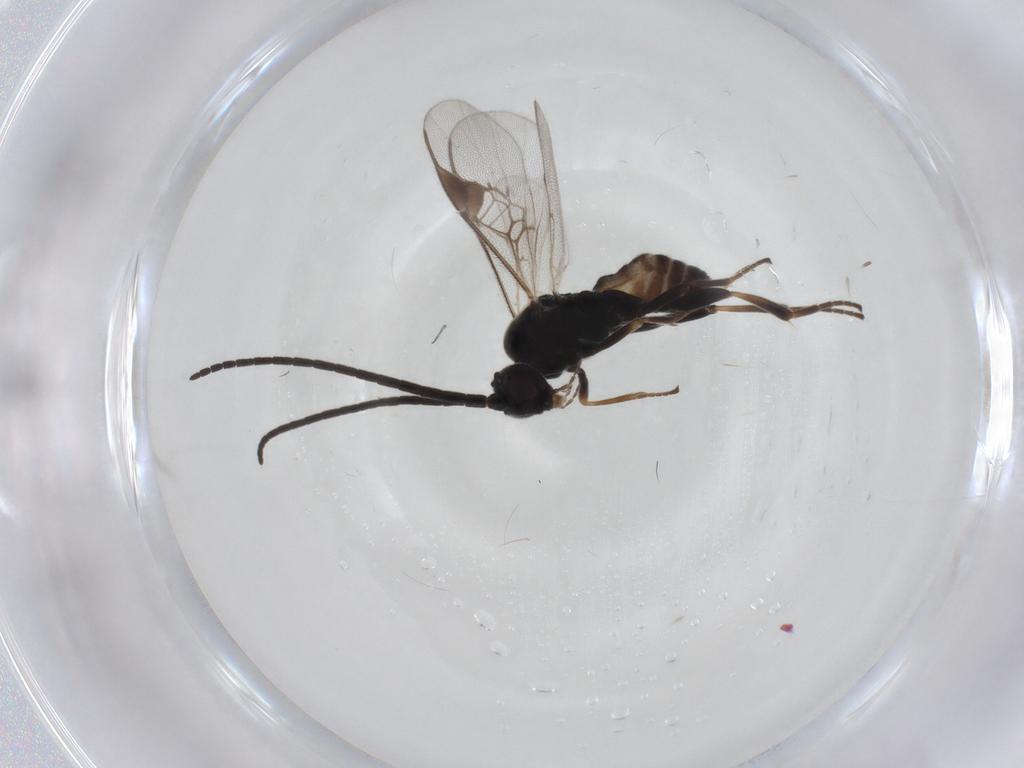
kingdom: Animalia
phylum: Arthropoda
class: Insecta
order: Hymenoptera
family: Braconidae
